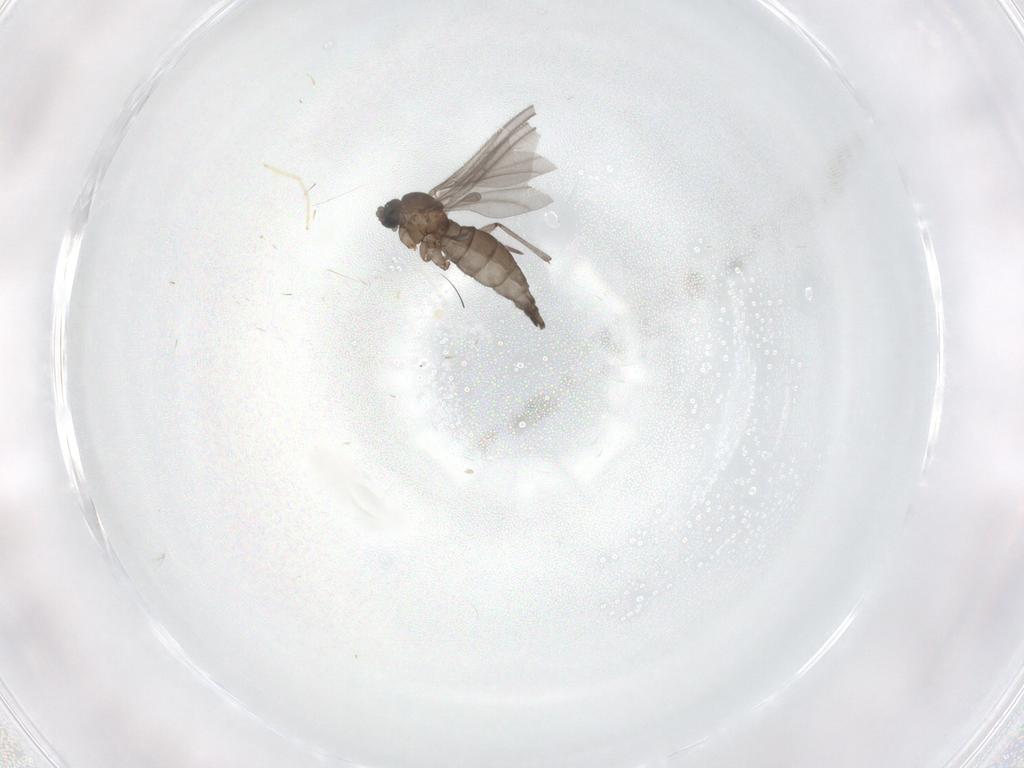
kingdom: Animalia
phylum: Arthropoda
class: Insecta
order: Diptera
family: Sciaridae
